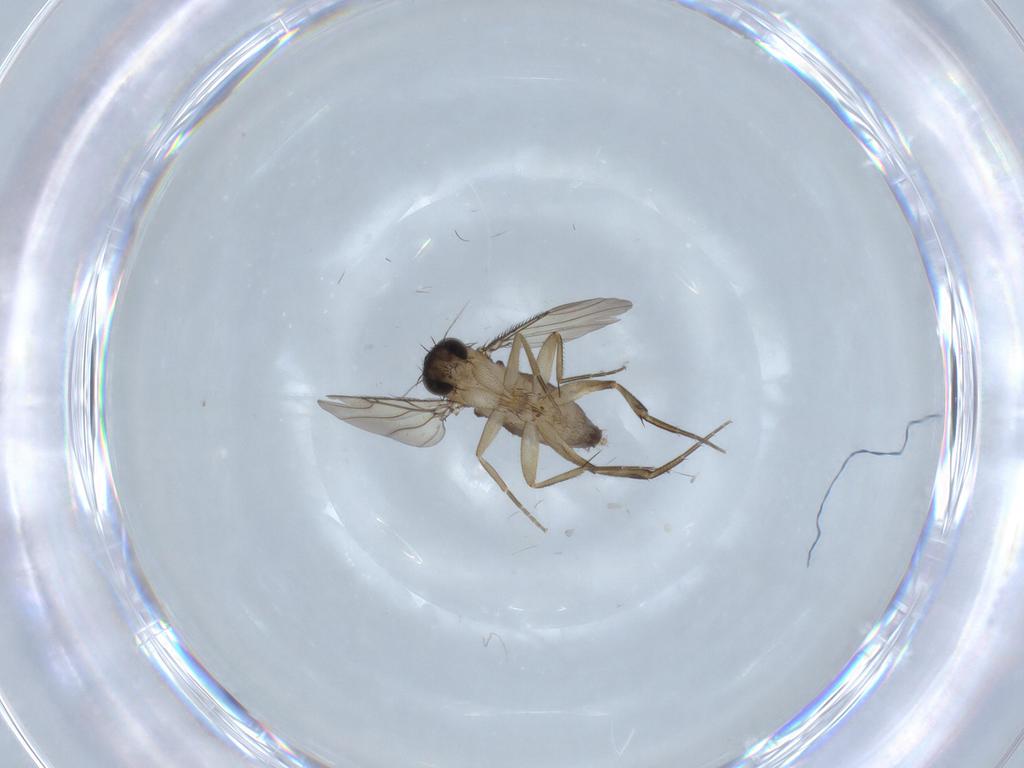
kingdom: Animalia
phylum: Arthropoda
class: Insecta
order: Diptera
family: Phoridae
